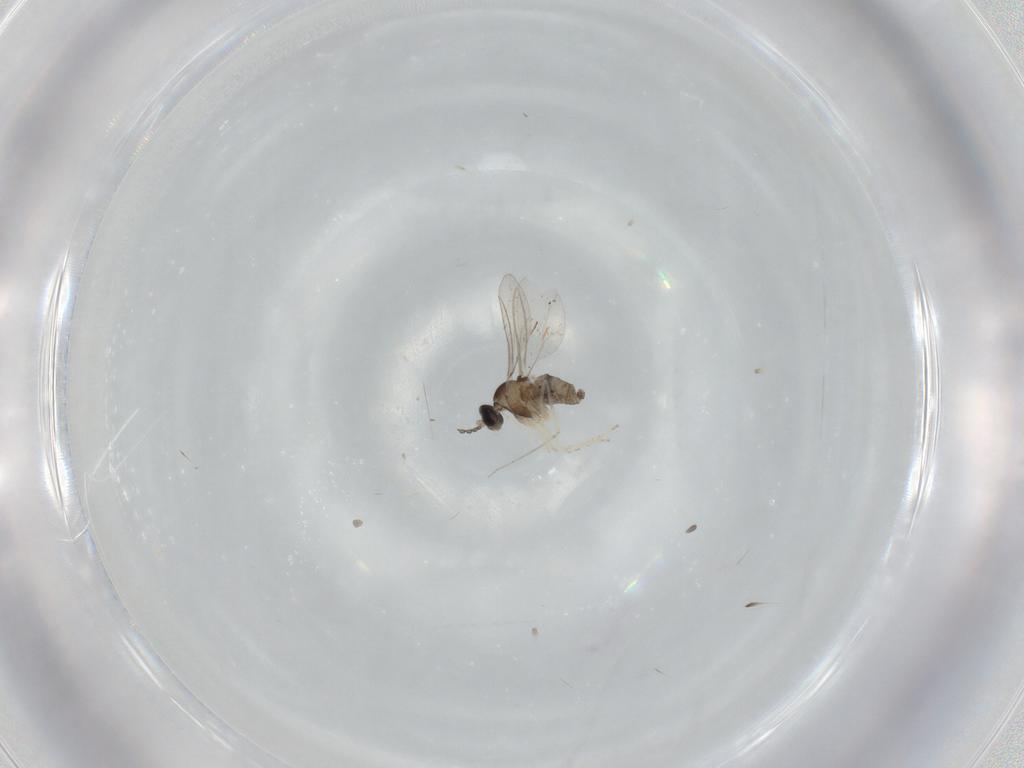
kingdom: Animalia
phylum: Arthropoda
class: Insecta
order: Diptera
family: Cecidomyiidae
